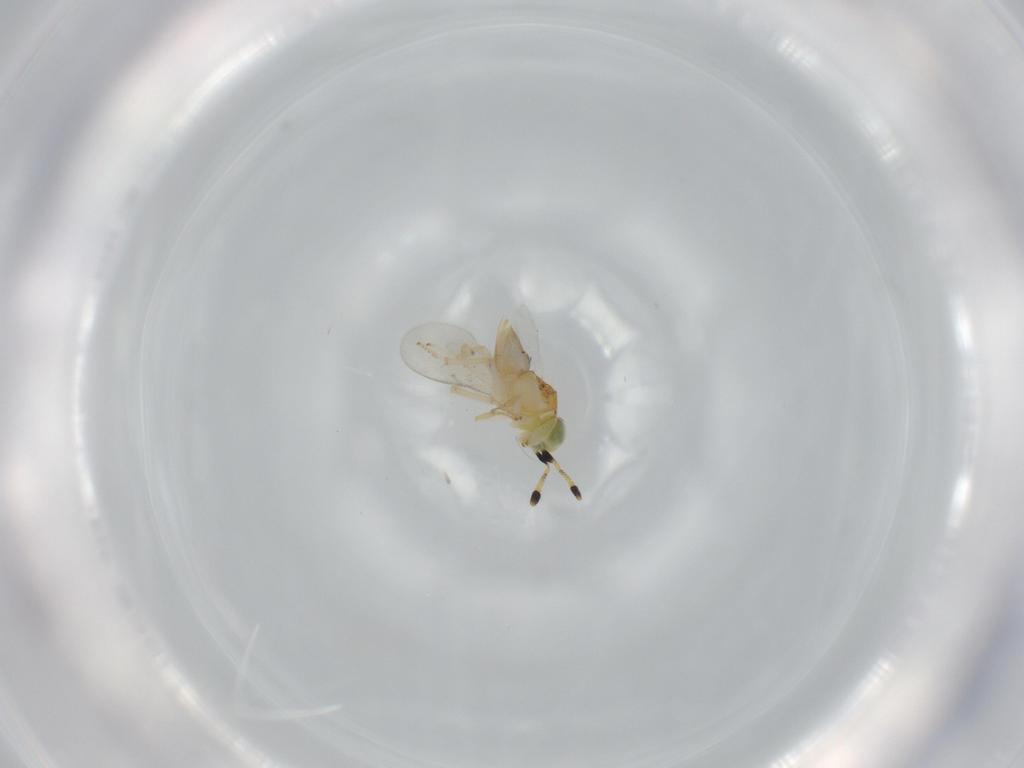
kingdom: Animalia
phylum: Arthropoda
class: Insecta
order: Hymenoptera
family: Encyrtidae
